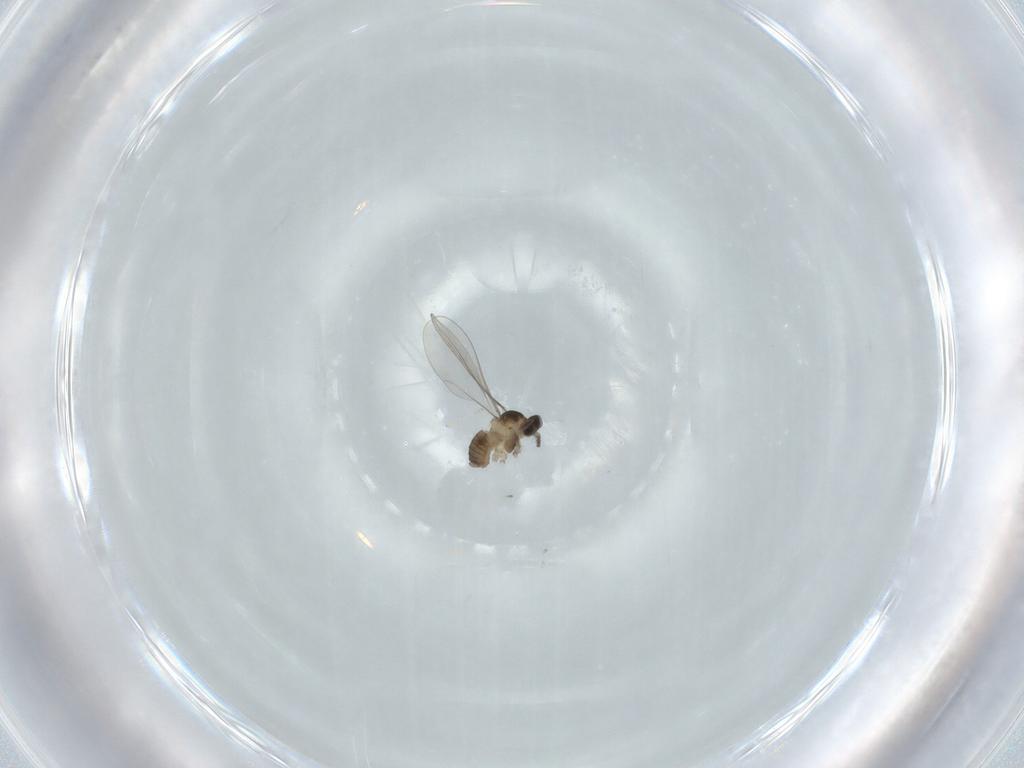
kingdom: Animalia
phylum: Arthropoda
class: Insecta
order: Diptera
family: Cecidomyiidae
